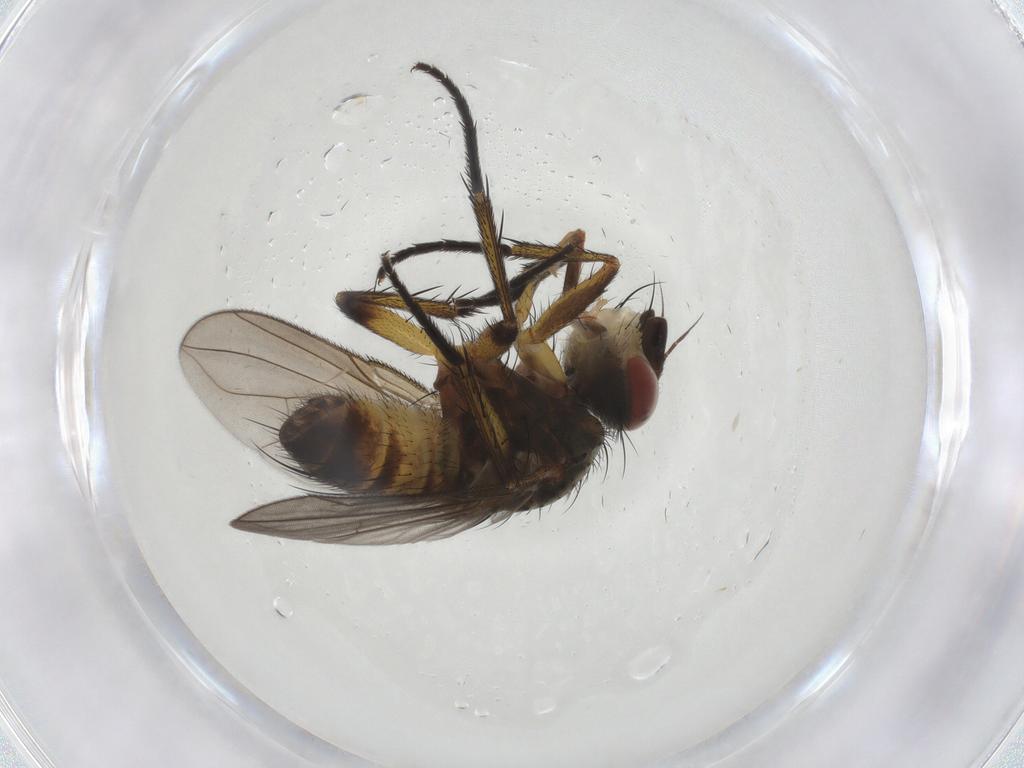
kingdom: Animalia
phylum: Arthropoda
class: Insecta
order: Diptera
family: Tachinidae
